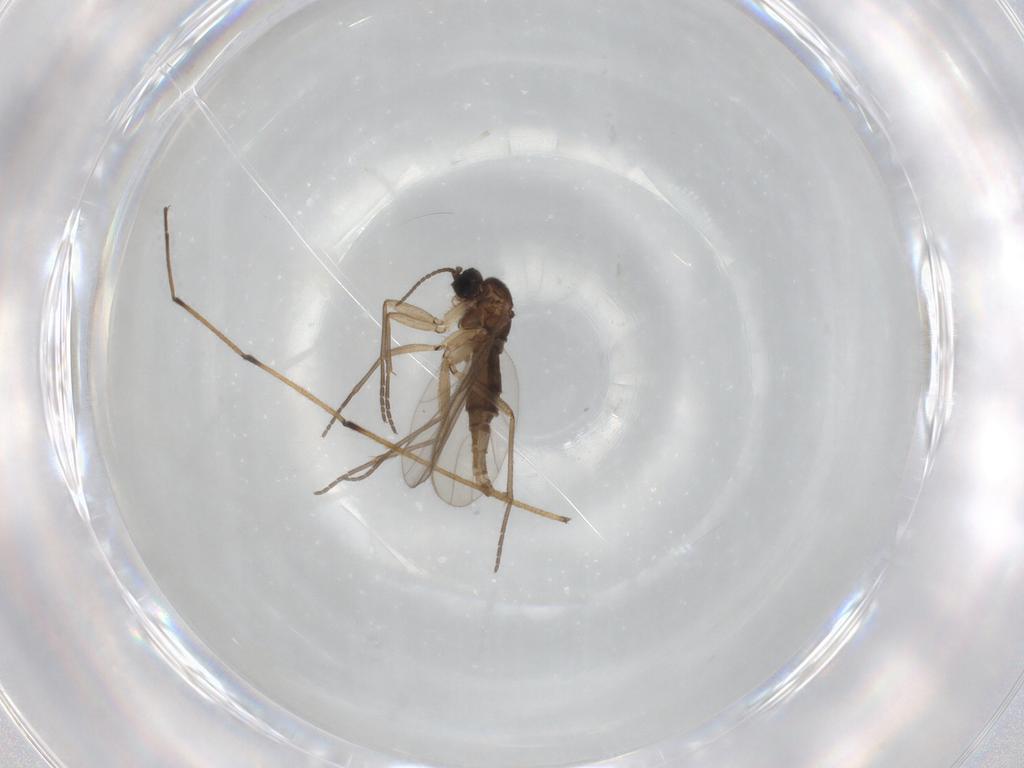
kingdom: Animalia
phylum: Arthropoda
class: Insecta
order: Diptera
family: Sciaridae
